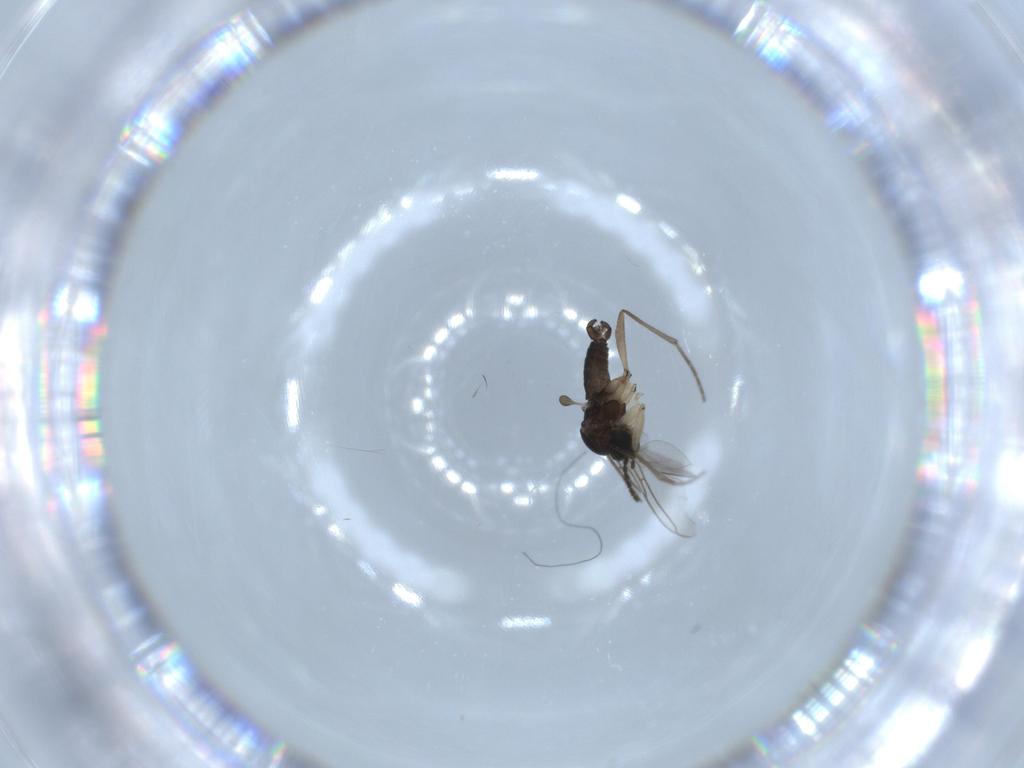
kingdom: Animalia
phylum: Arthropoda
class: Insecta
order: Diptera
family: Sciaridae
